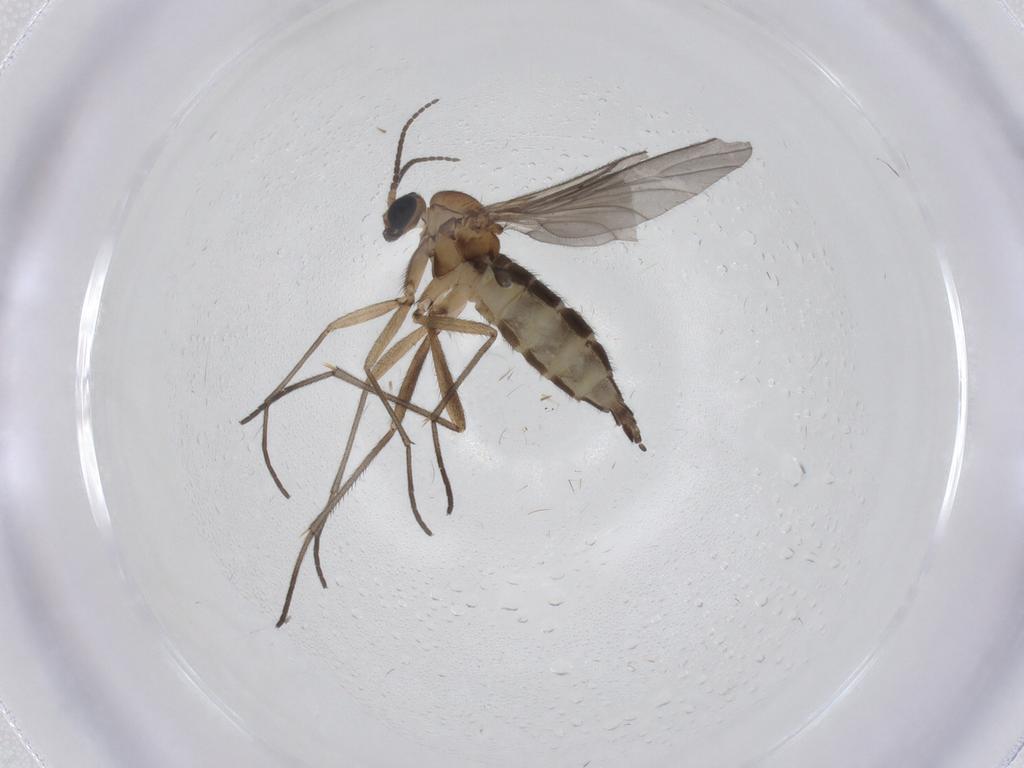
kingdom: Animalia
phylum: Arthropoda
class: Insecta
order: Diptera
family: Sciaridae
